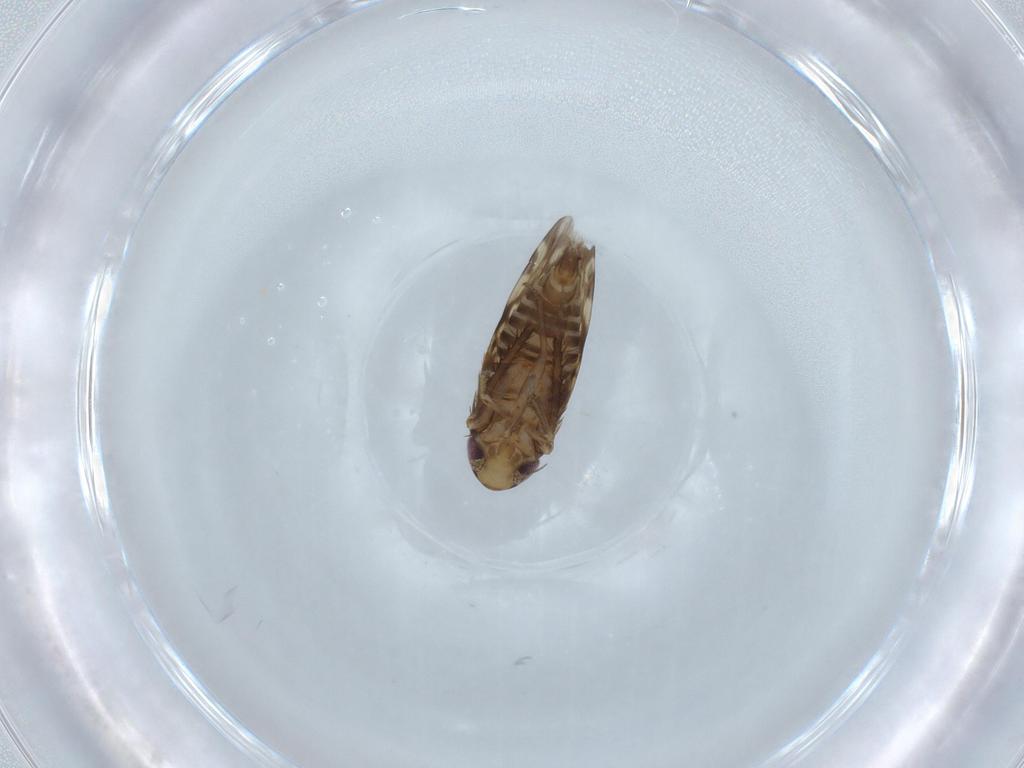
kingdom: Animalia
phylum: Arthropoda
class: Insecta
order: Hemiptera
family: Cicadellidae
